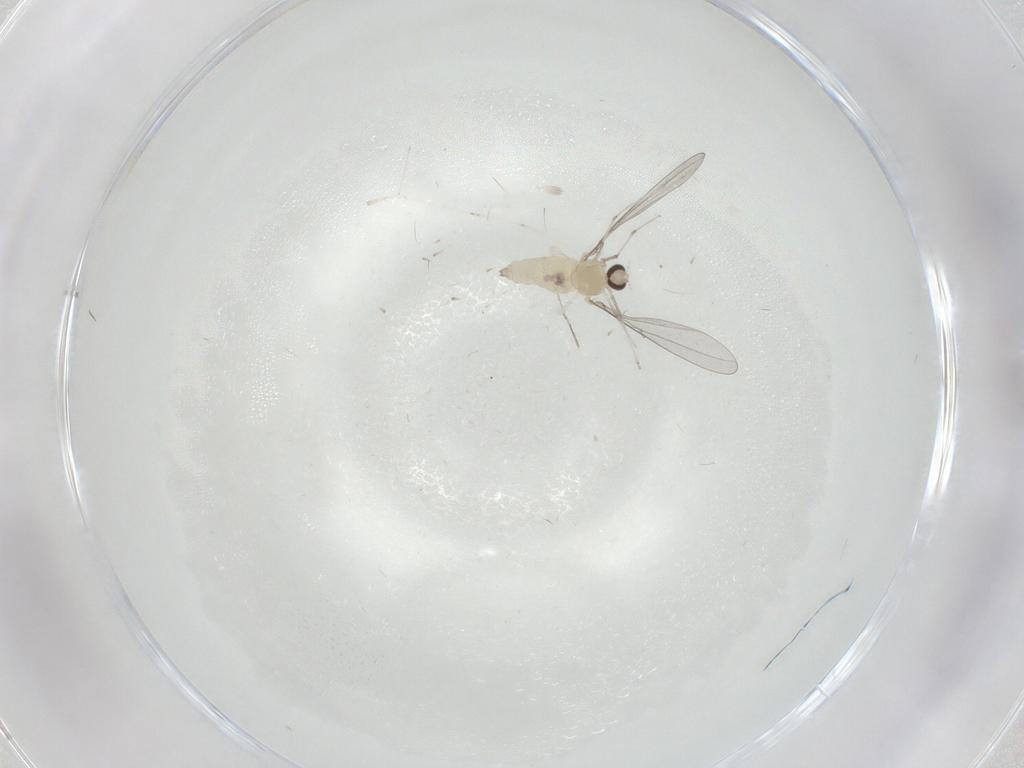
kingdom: Animalia
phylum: Arthropoda
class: Insecta
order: Diptera
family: Cecidomyiidae
